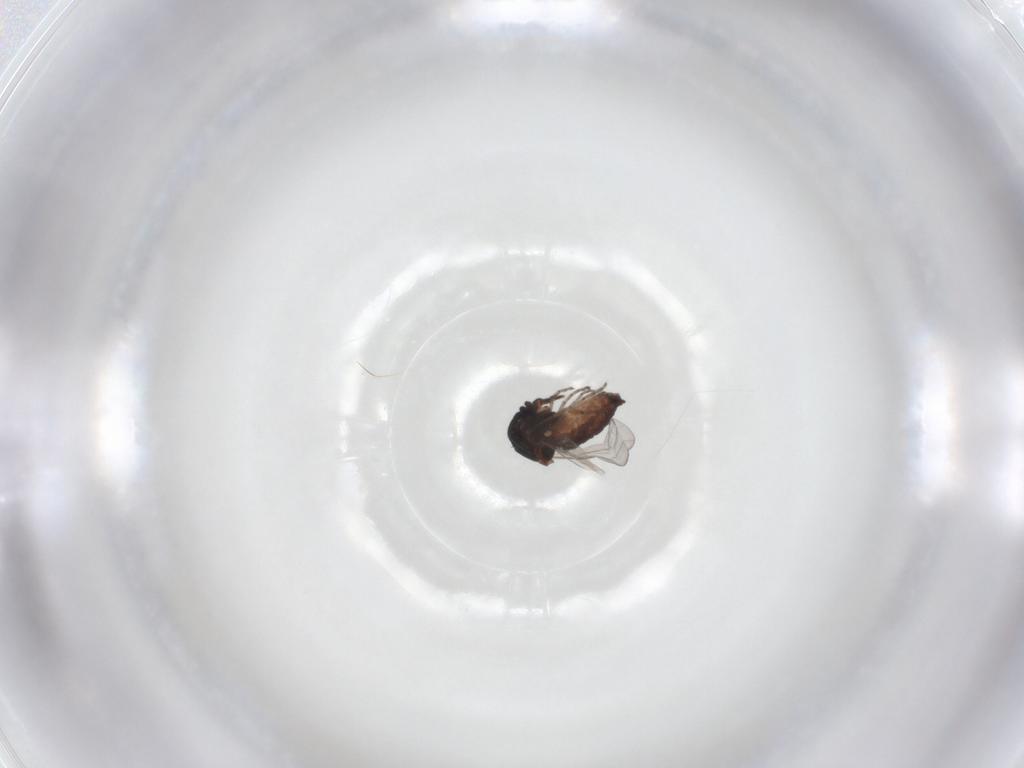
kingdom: Animalia
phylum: Arthropoda
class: Insecta
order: Diptera
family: Ceratopogonidae
